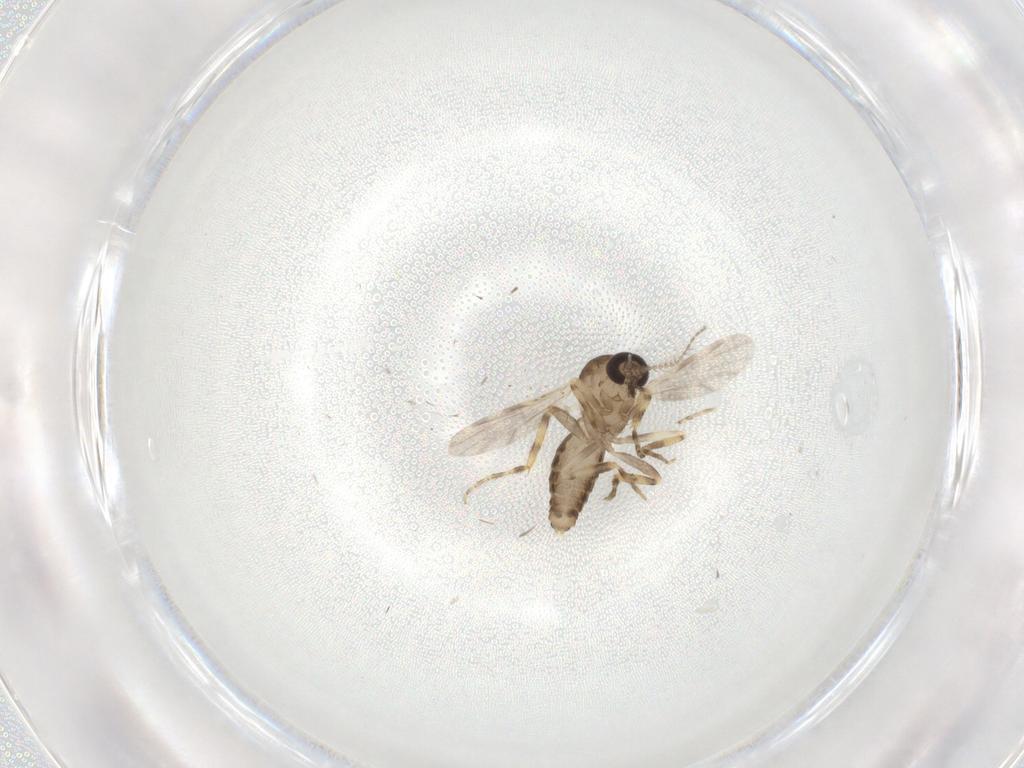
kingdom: Animalia
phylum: Arthropoda
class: Insecta
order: Diptera
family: Ceratopogonidae
